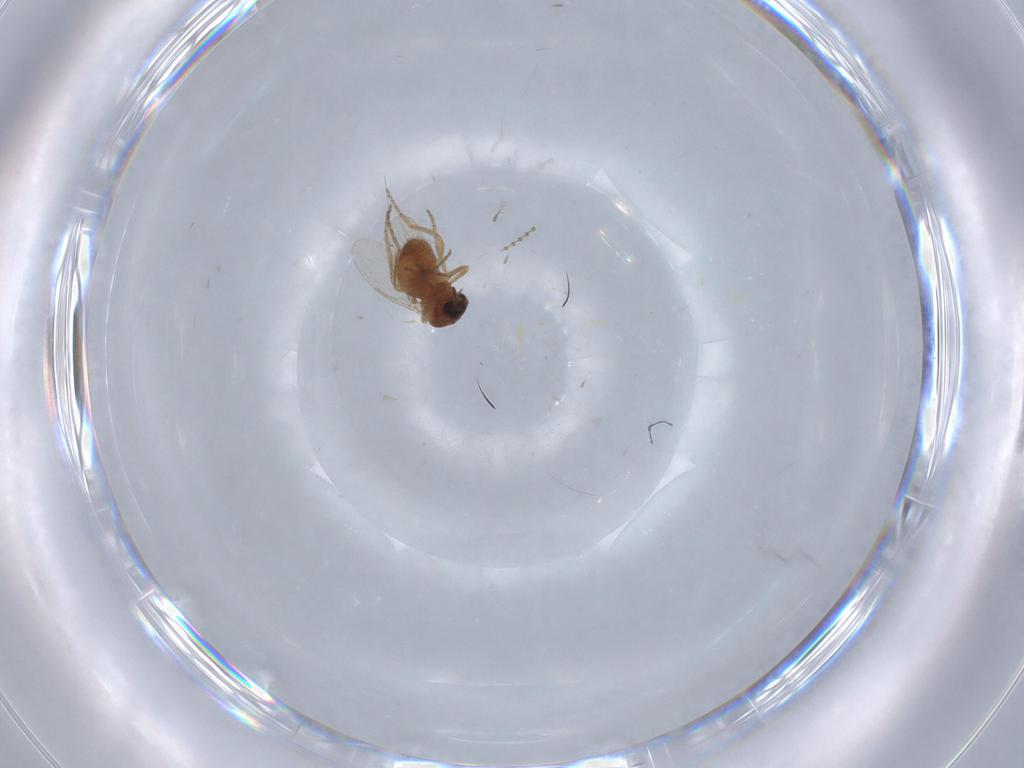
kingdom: Animalia
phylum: Arthropoda
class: Insecta
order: Diptera
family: Ceratopogonidae
